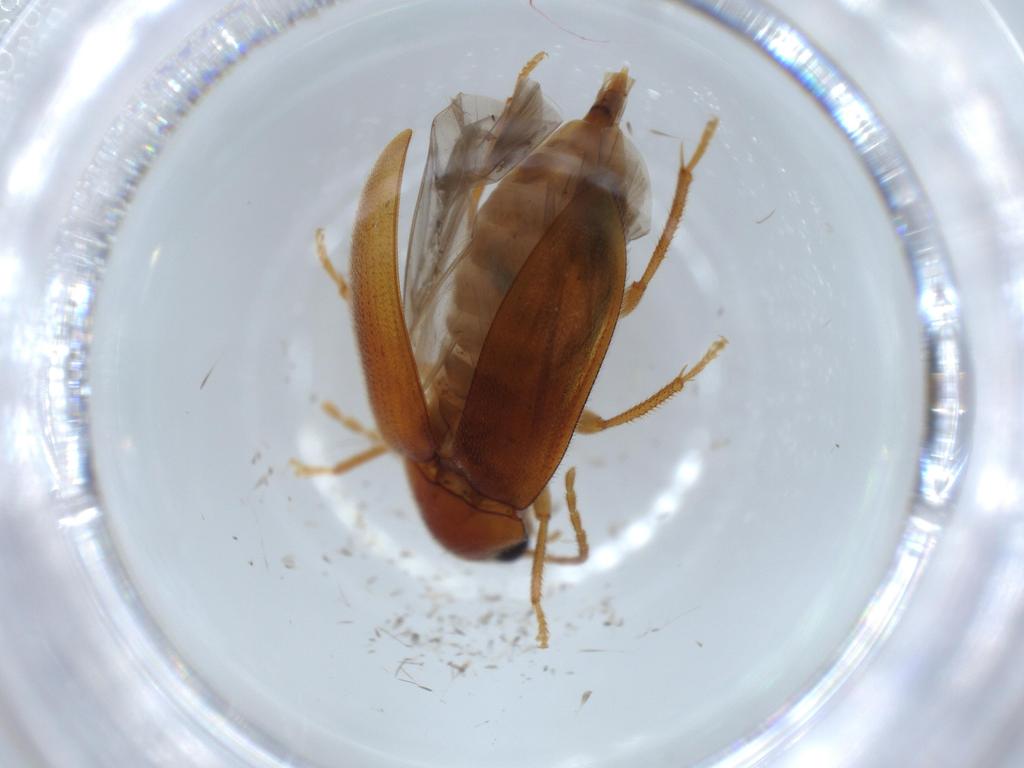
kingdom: Animalia
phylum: Arthropoda
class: Insecta
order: Coleoptera
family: Ptilodactylidae
